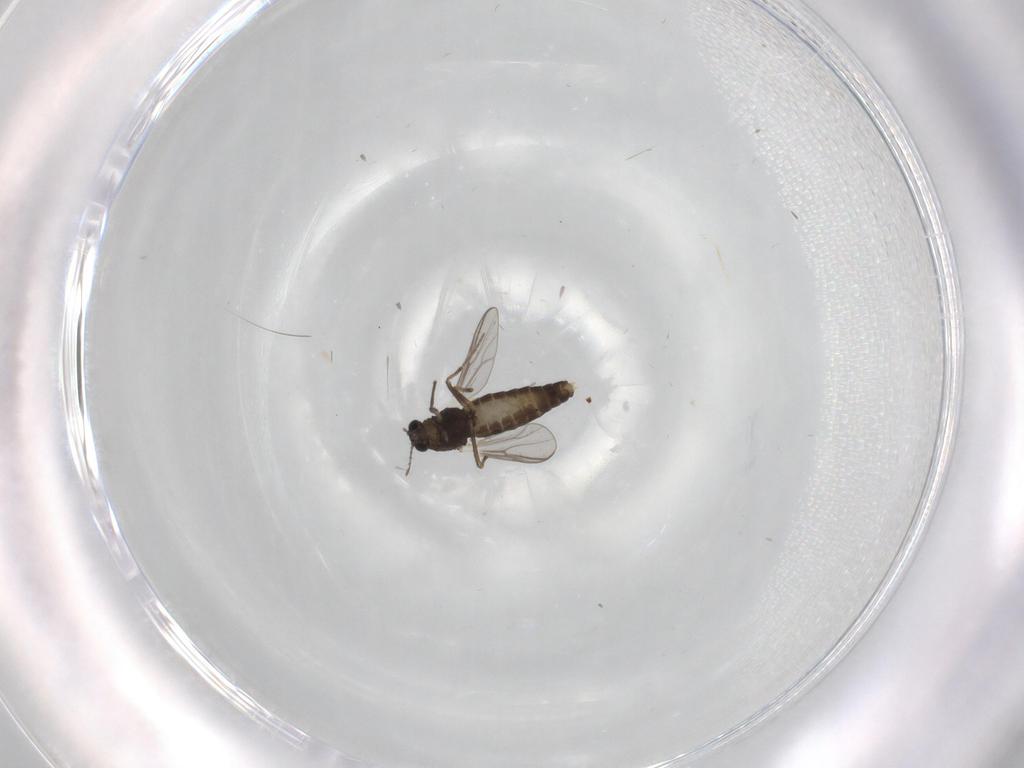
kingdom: Animalia
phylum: Arthropoda
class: Insecta
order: Diptera
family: Chironomidae
